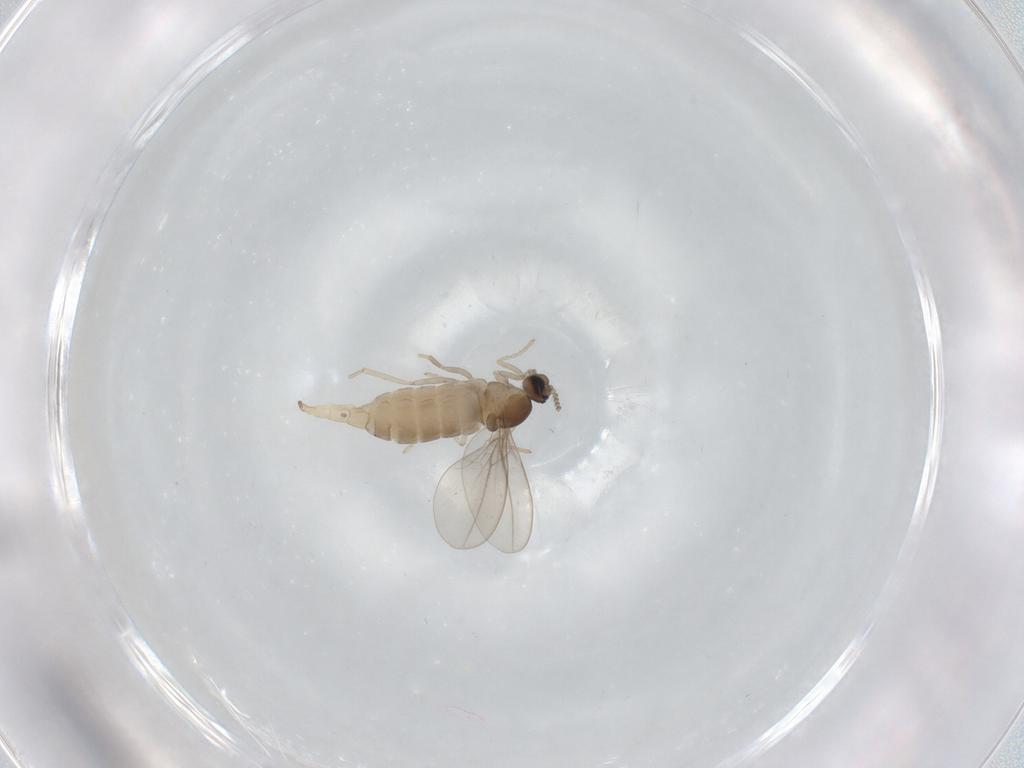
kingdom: Animalia
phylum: Arthropoda
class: Insecta
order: Diptera
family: Cecidomyiidae
